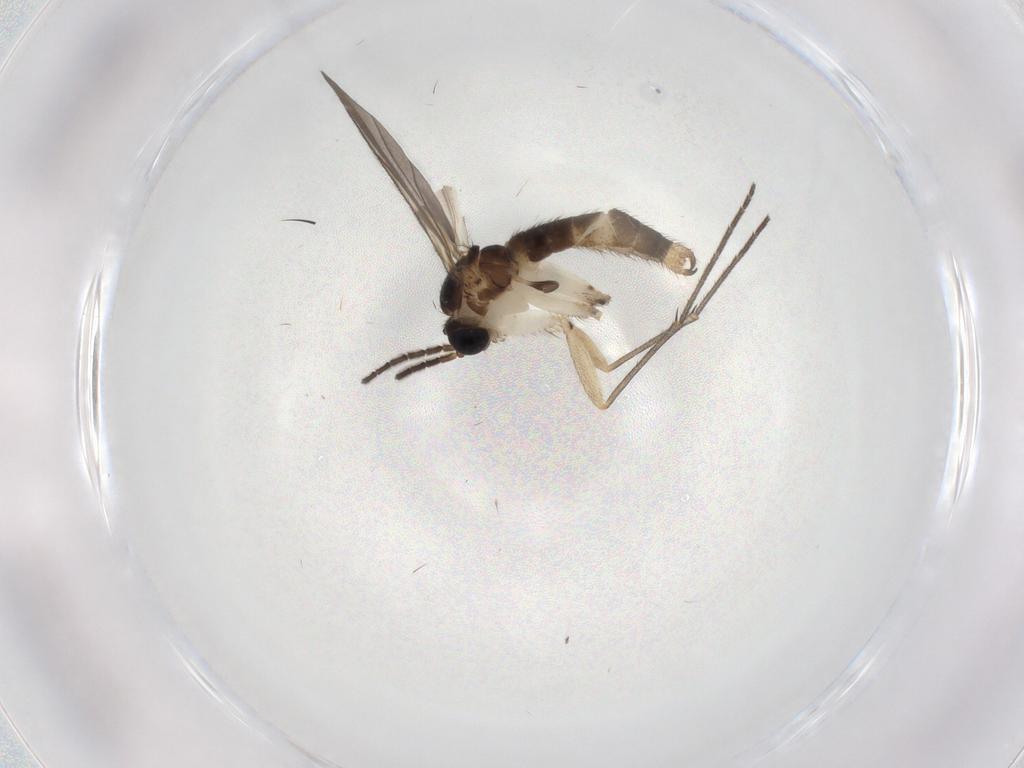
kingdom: Animalia
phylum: Arthropoda
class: Insecta
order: Diptera
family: Sciaridae
